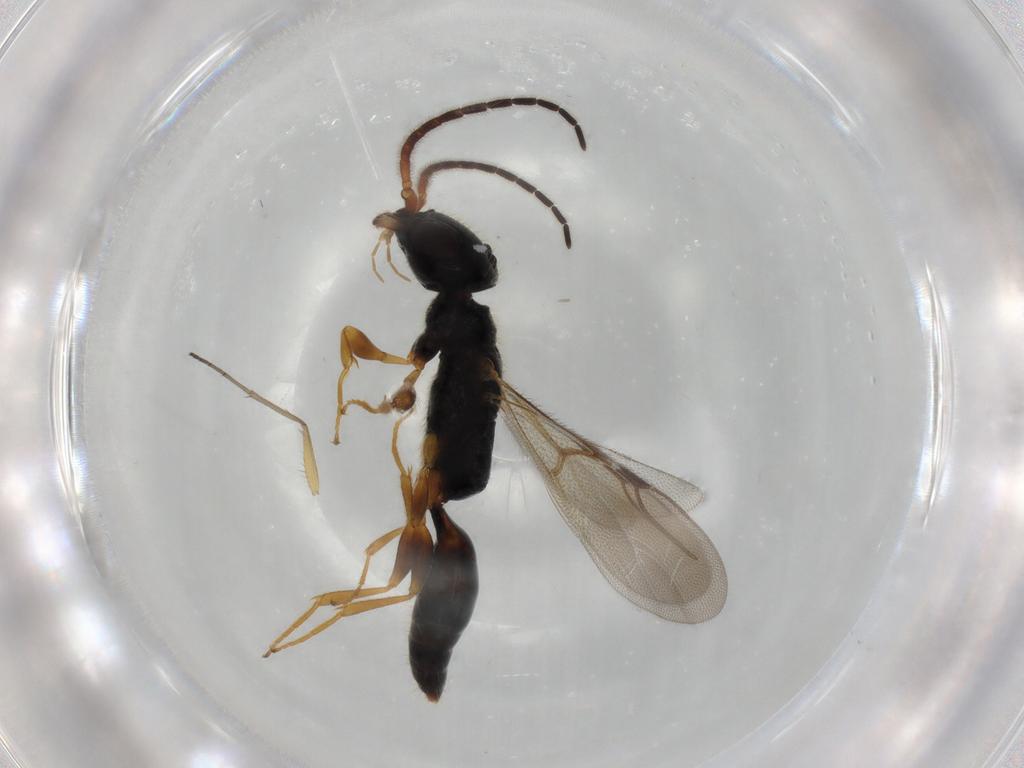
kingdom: Animalia
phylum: Arthropoda
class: Insecta
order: Hymenoptera
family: Bethylidae
